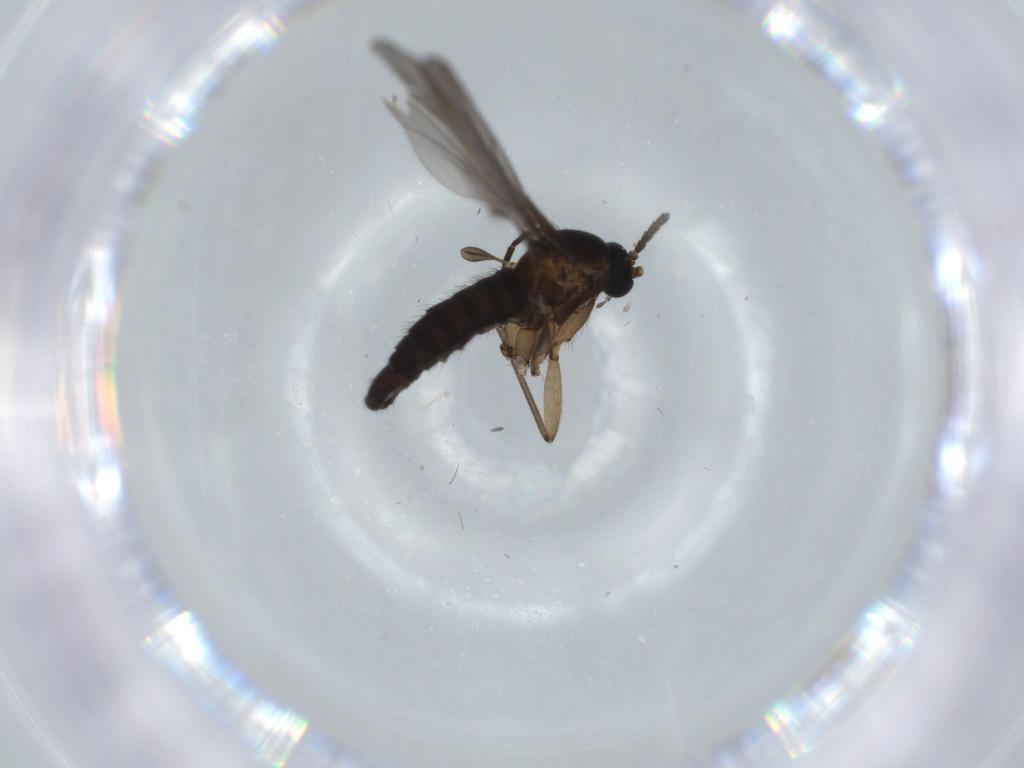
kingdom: Animalia
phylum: Arthropoda
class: Insecta
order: Diptera
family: Sciaridae
